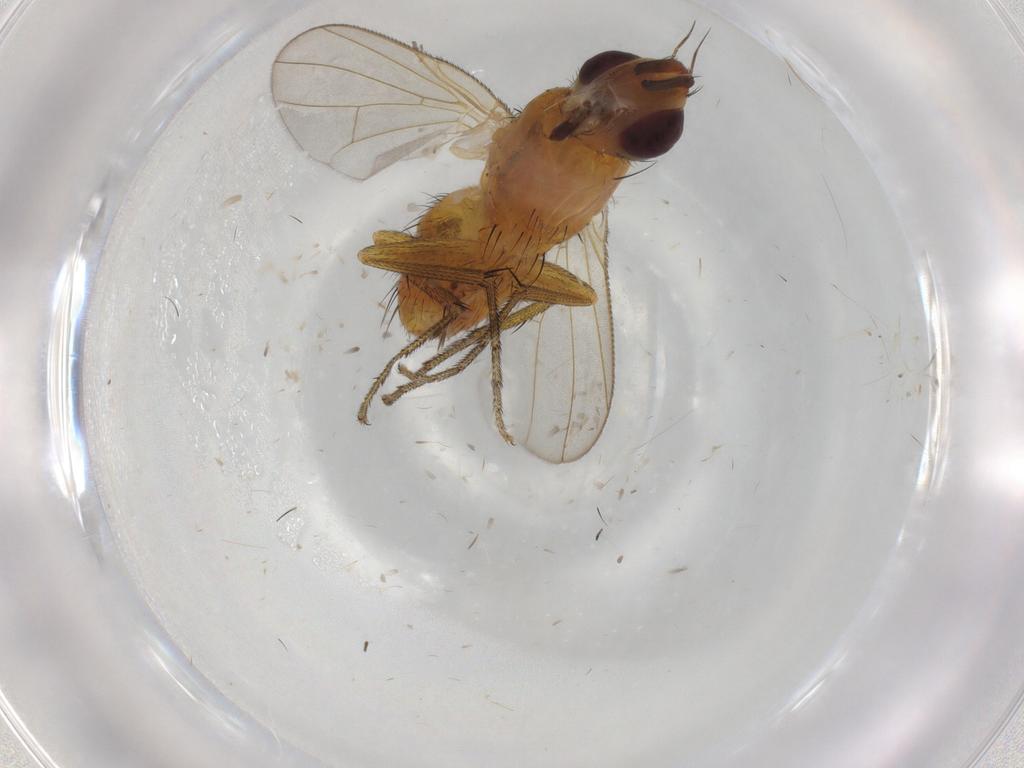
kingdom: Animalia
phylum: Arthropoda
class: Insecta
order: Diptera
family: Muscidae
